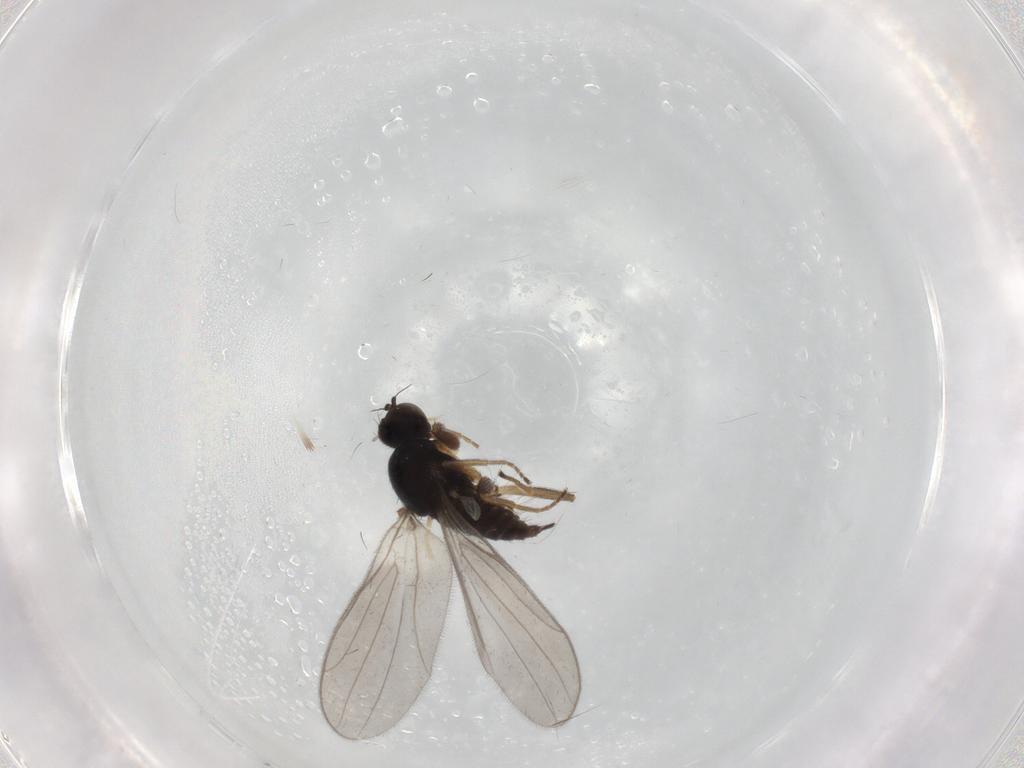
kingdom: Animalia
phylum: Arthropoda
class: Insecta
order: Diptera
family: Hybotidae
